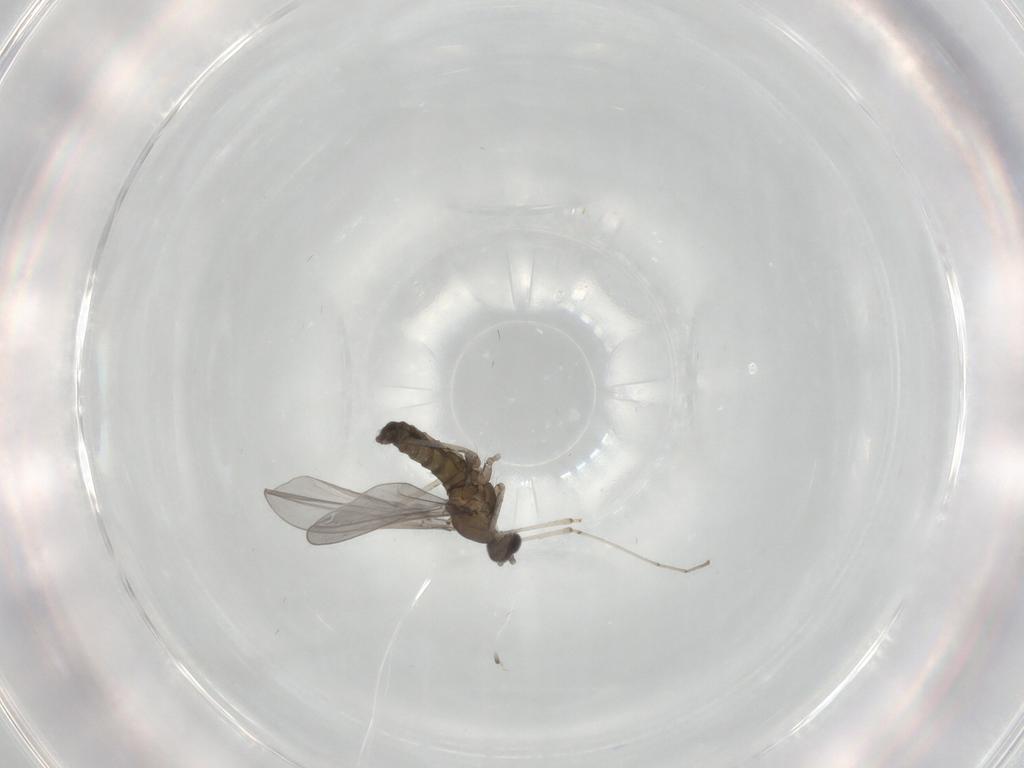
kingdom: Animalia
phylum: Arthropoda
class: Insecta
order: Diptera
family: Cecidomyiidae
